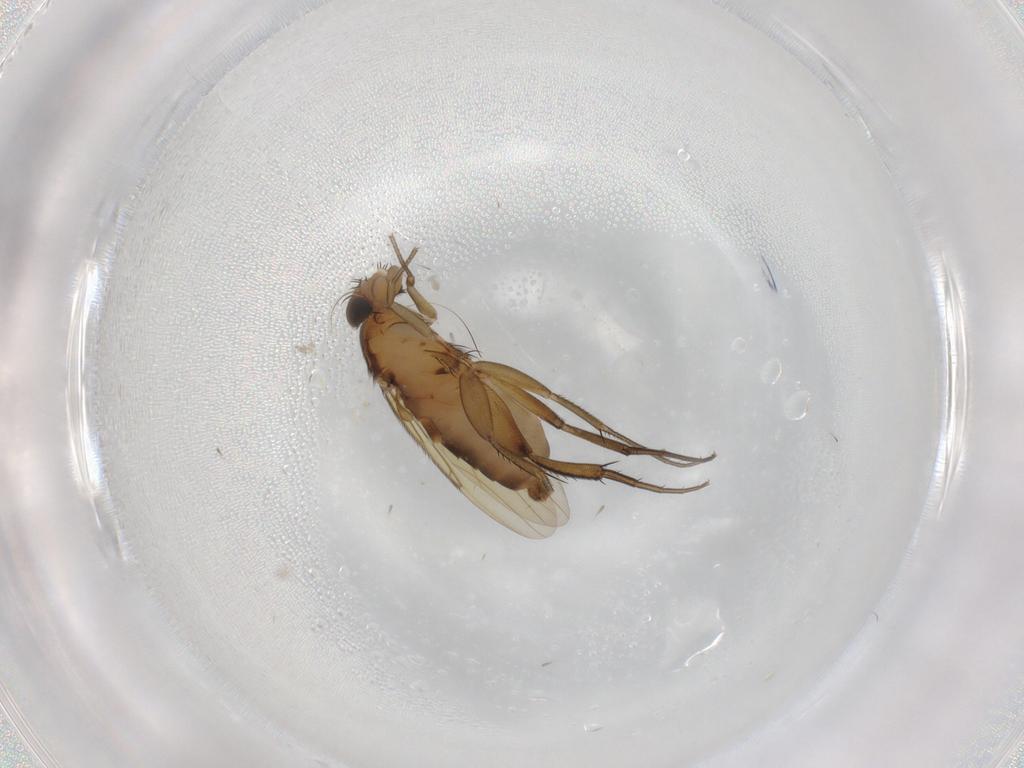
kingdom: Animalia
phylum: Arthropoda
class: Insecta
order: Diptera
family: Phoridae
